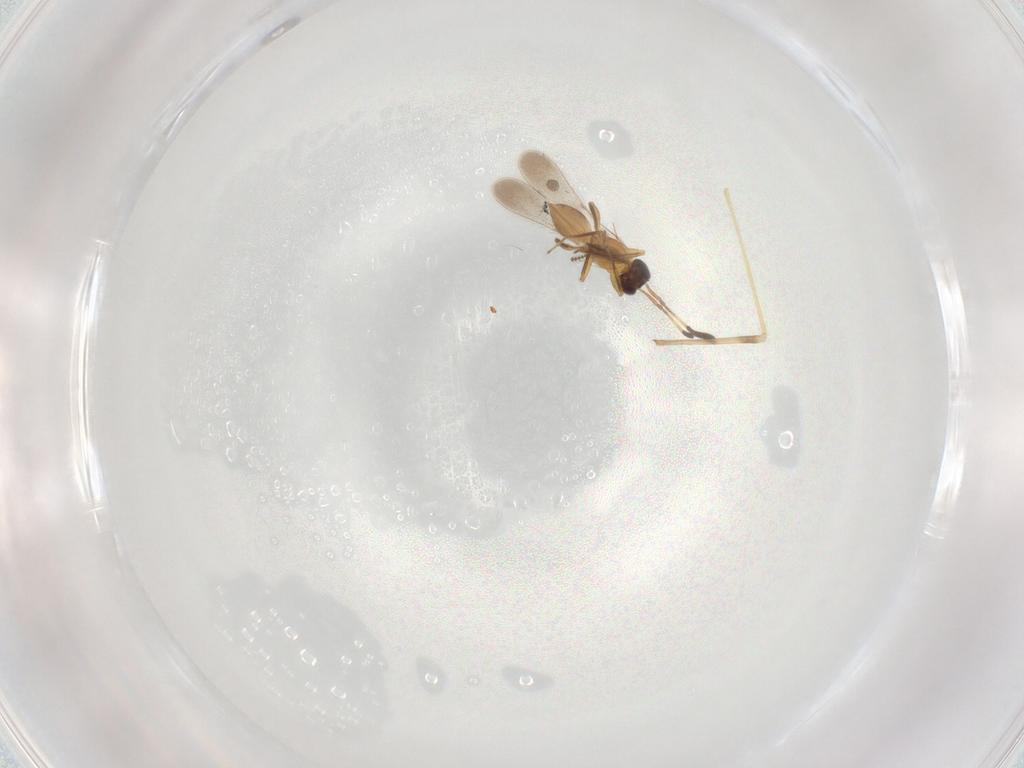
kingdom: Animalia
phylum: Arthropoda
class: Insecta
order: Hymenoptera
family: Mymaridae
